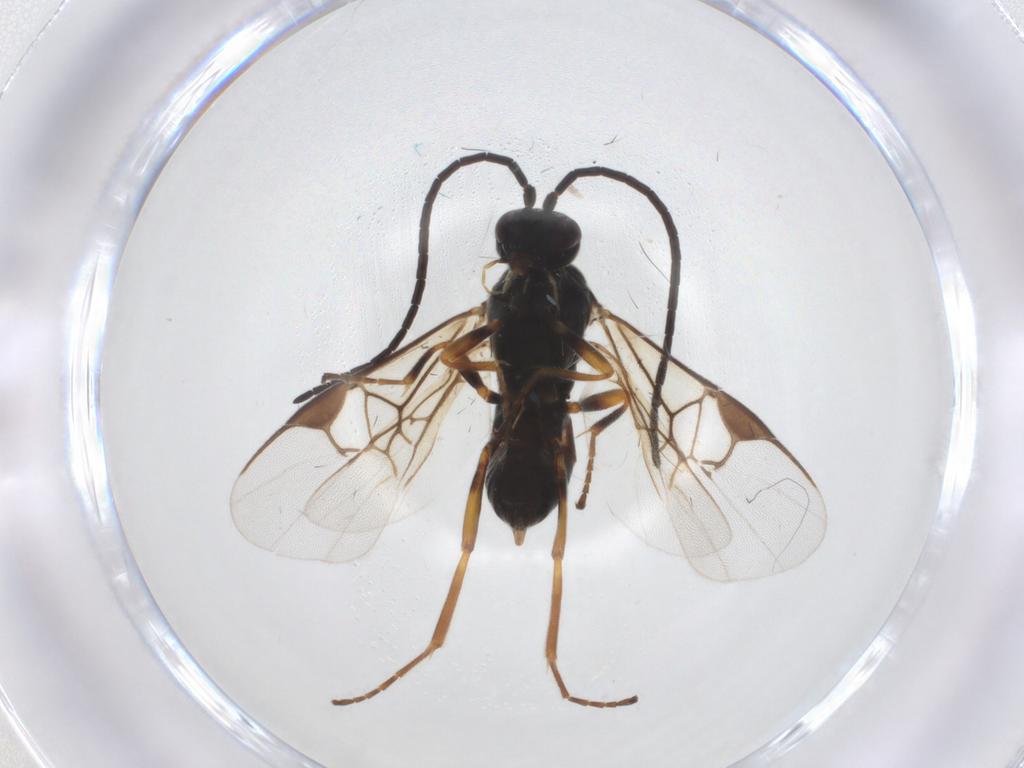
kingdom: Animalia
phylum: Arthropoda
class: Insecta
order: Hymenoptera
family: Braconidae
